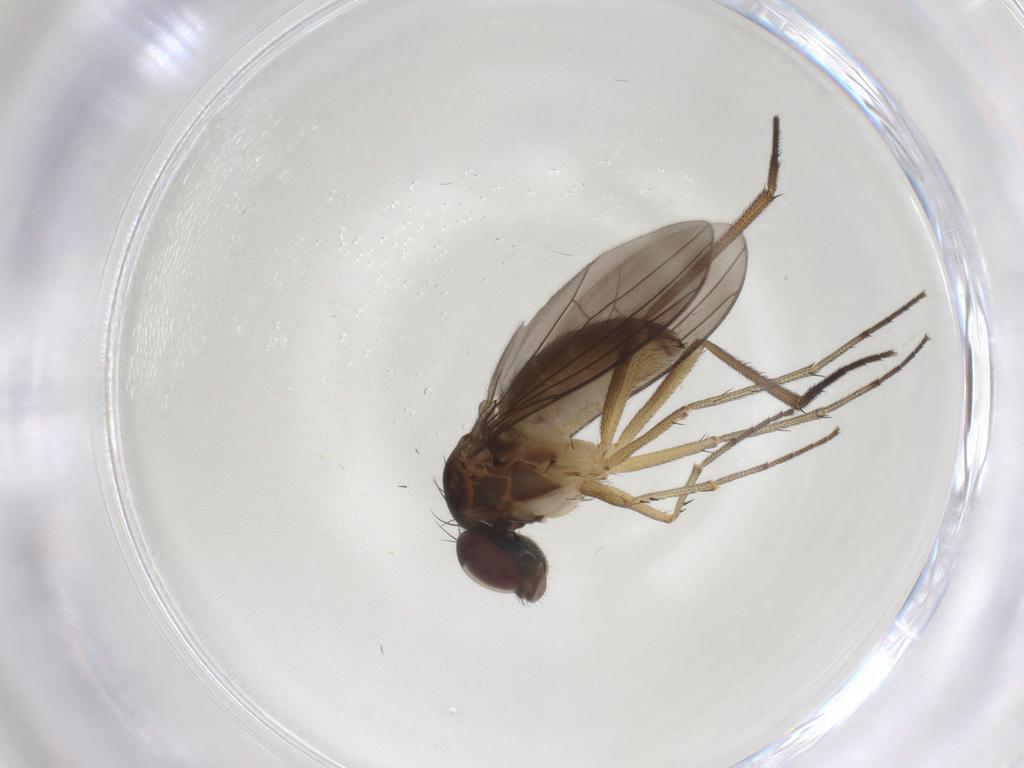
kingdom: Animalia
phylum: Arthropoda
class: Insecta
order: Diptera
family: Dolichopodidae
